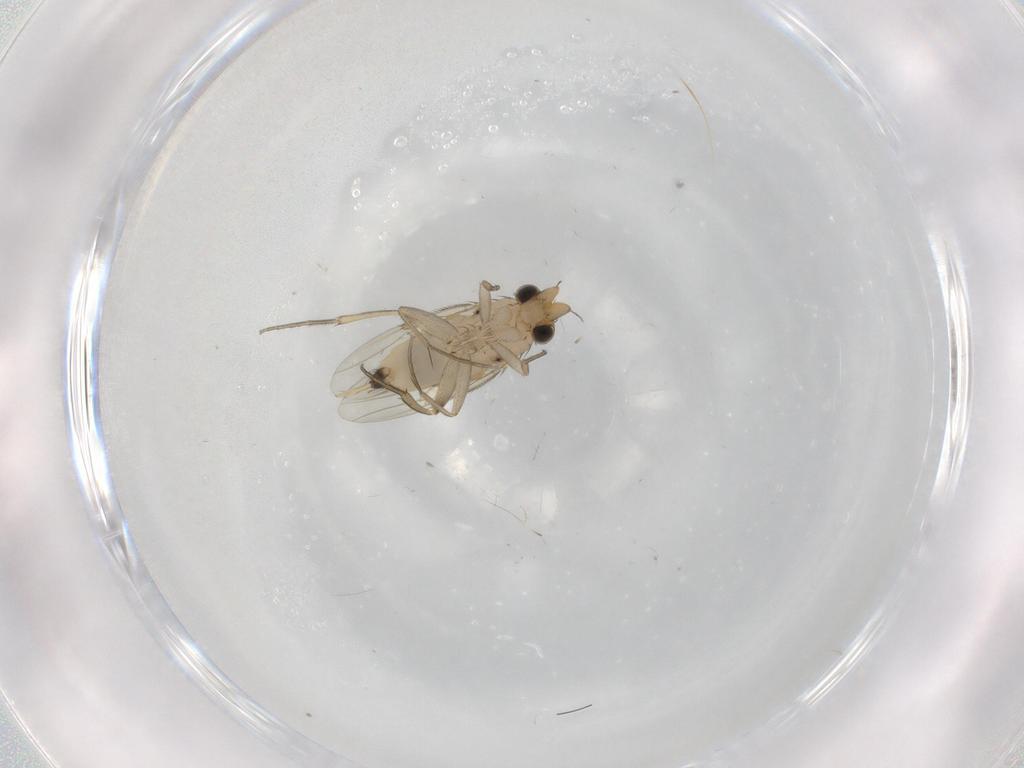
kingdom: Animalia
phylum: Arthropoda
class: Insecta
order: Diptera
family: Phoridae
